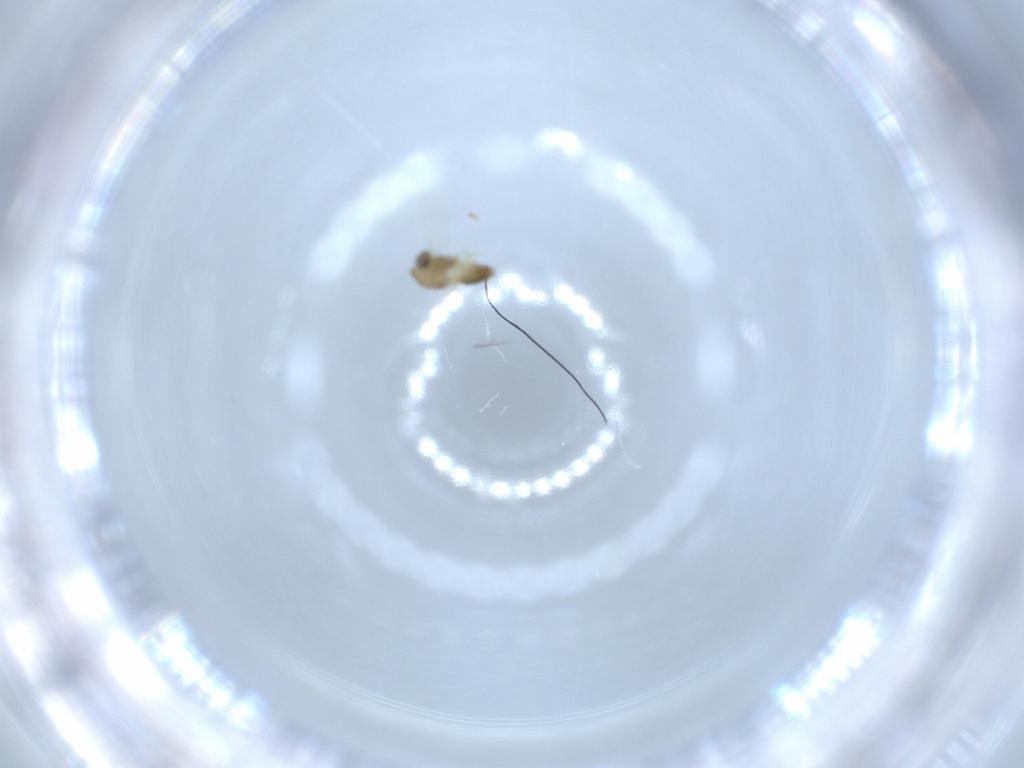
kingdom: Animalia
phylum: Arthropoda
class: Insecta
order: Diptera
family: Chironomidae
